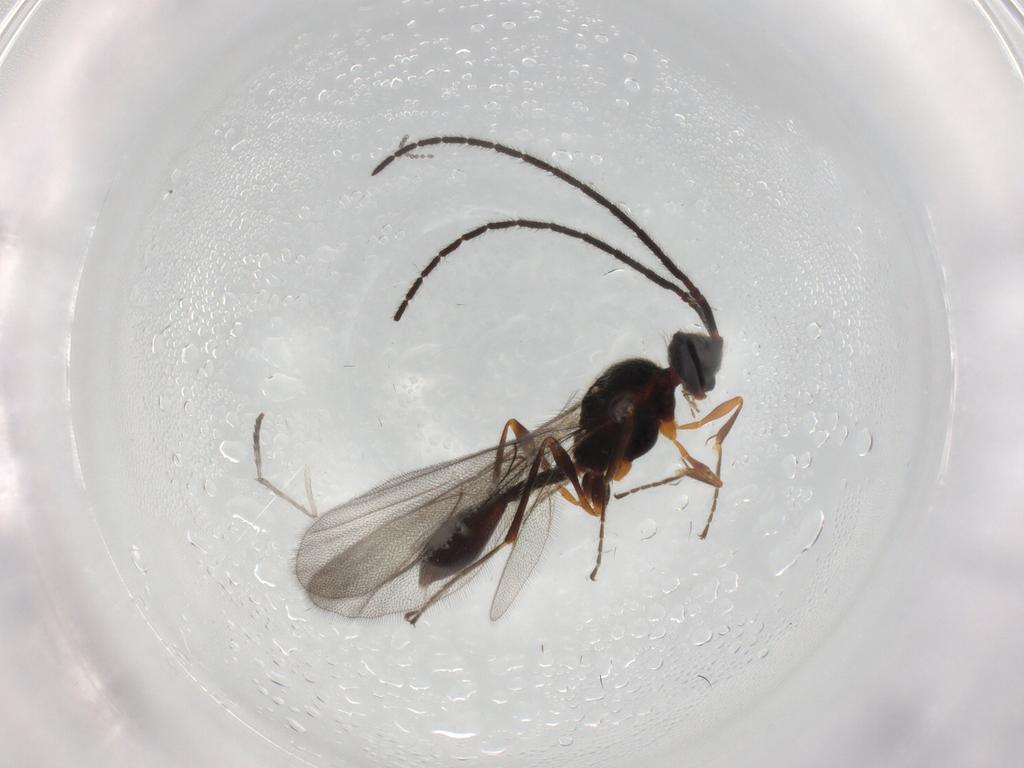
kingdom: Animalia
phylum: Arthropoda
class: Insecta
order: Hymenoptera
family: Diapriidae
